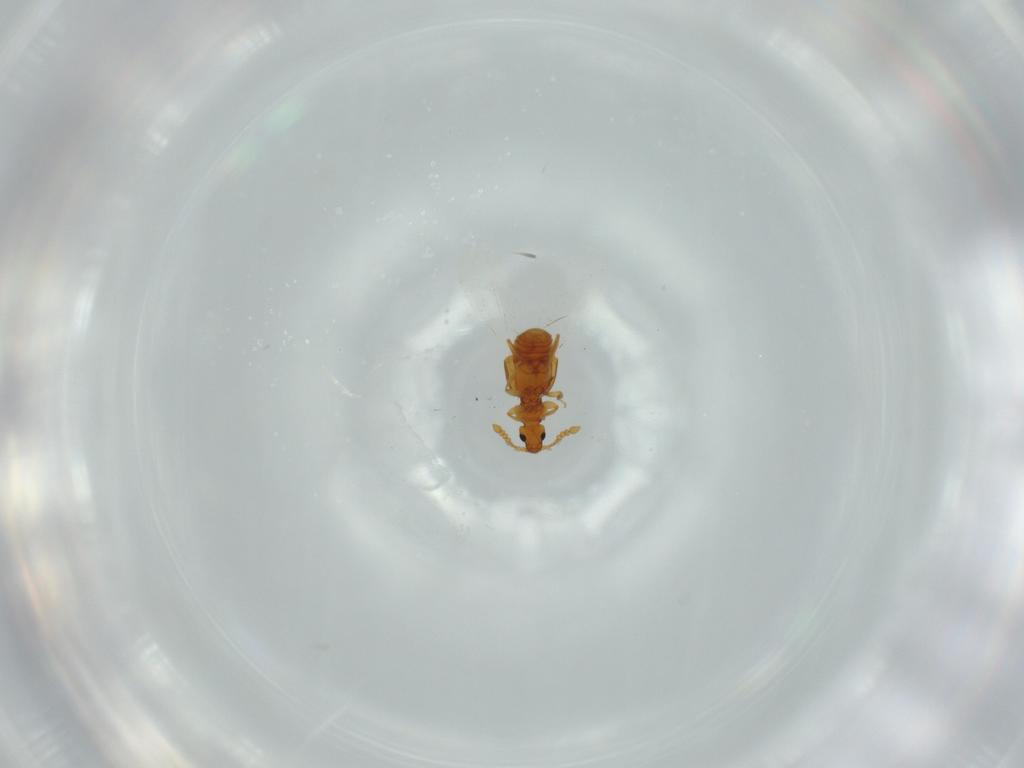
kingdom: Animalia
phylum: Arthropoda
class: Insecta
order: Coleoptera
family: Staphylinidae
